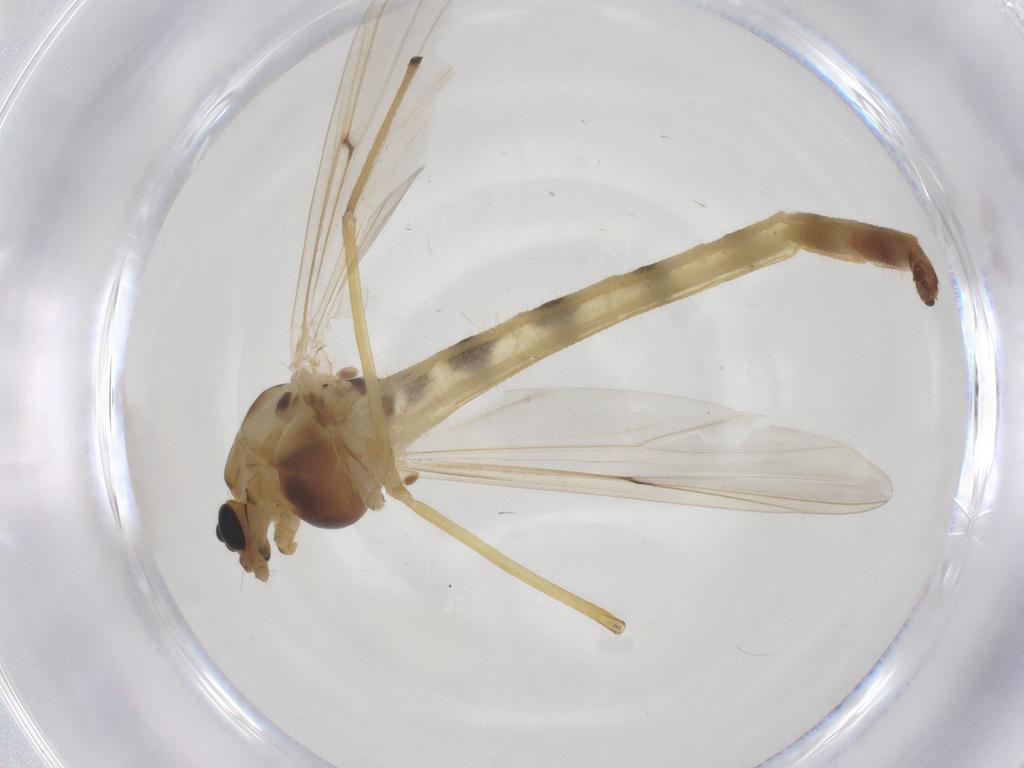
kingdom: Animalia
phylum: Arthropoda
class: Insecta
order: Diptera
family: Chironomidae
